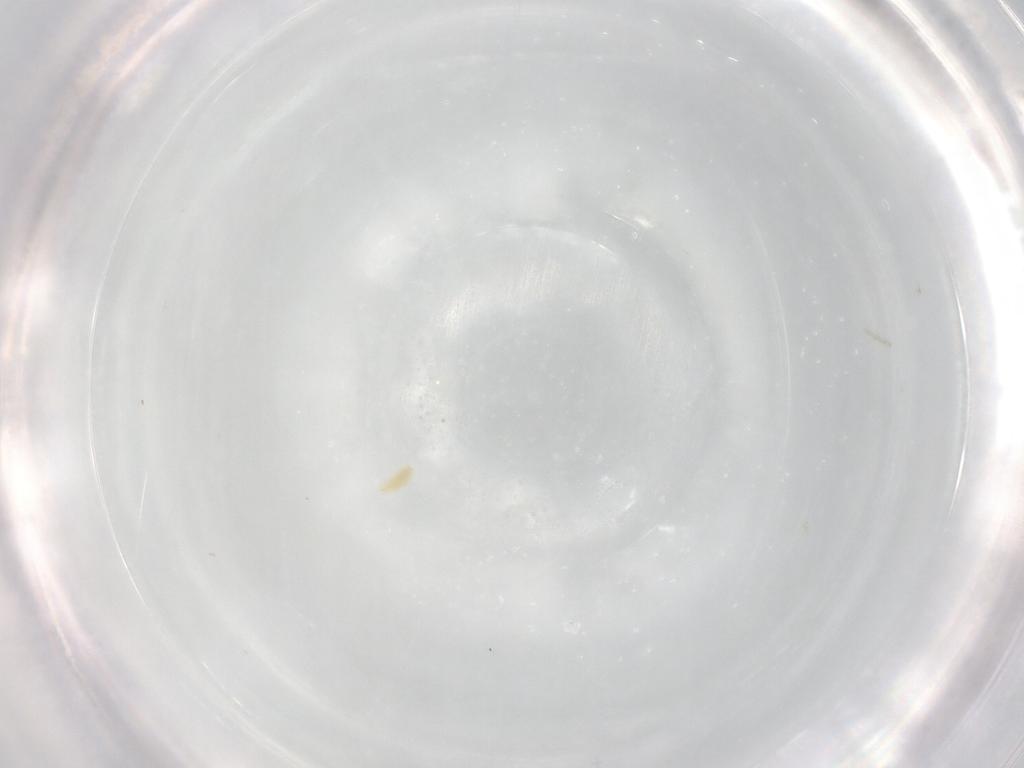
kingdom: Animalia
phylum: Arthropoda
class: Arachnida
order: Trombidiformes
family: Tetranychidae
